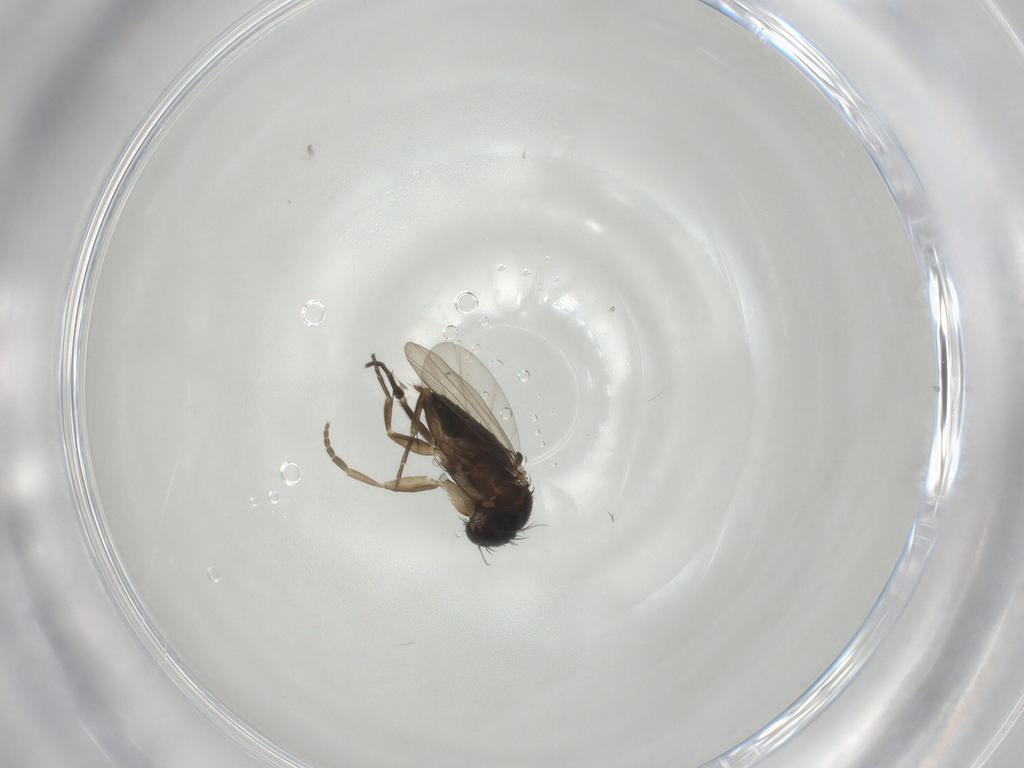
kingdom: Animalia
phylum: Arthropoda
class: Insecta
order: Diptera
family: Phoridae
